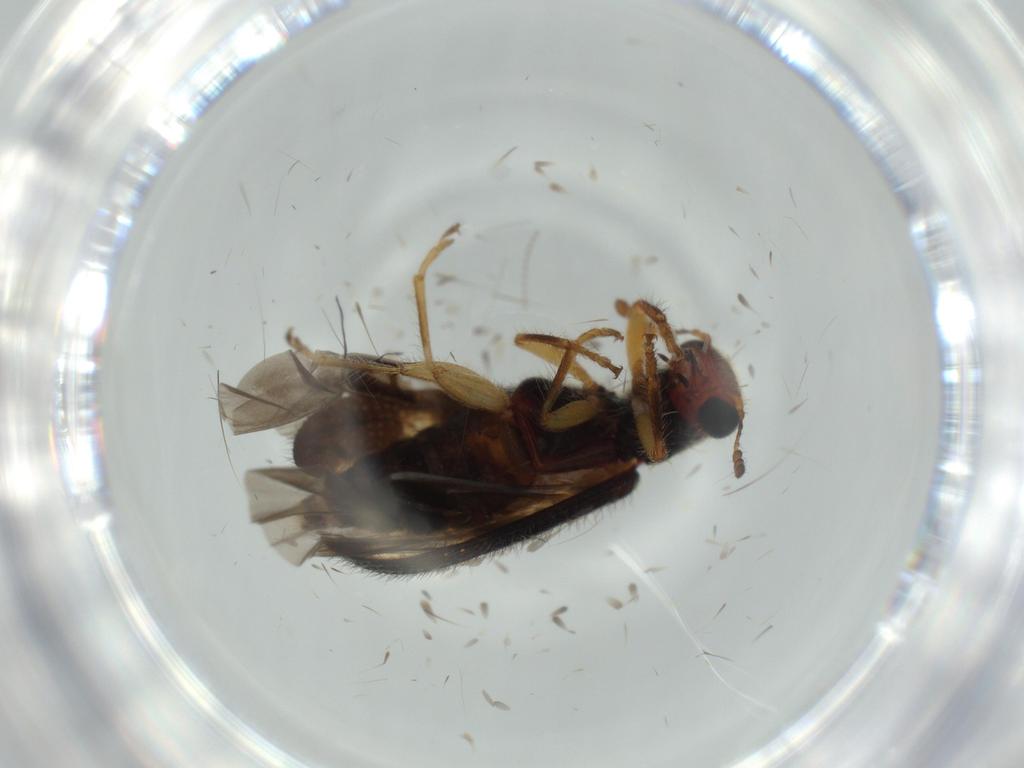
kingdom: Animalia
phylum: Arthropoda
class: Insecta
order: Coleoptera
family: Cleridae
